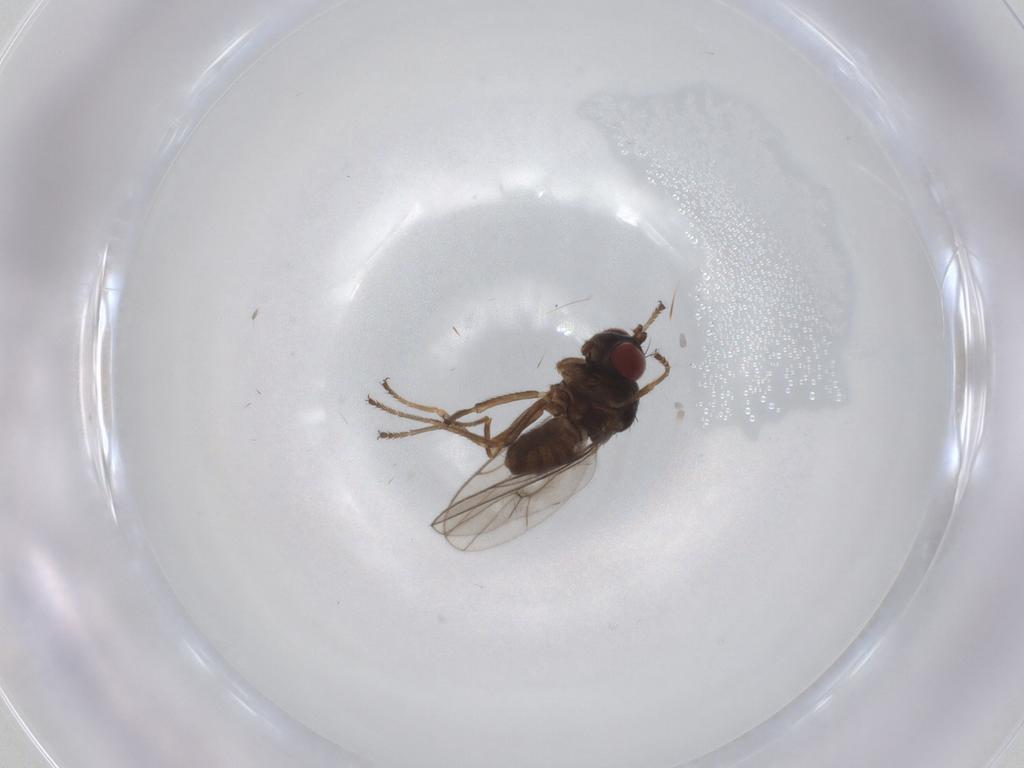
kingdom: Animalia
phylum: Arthropoda
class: Insecta
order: Diptera
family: Ephydridae
